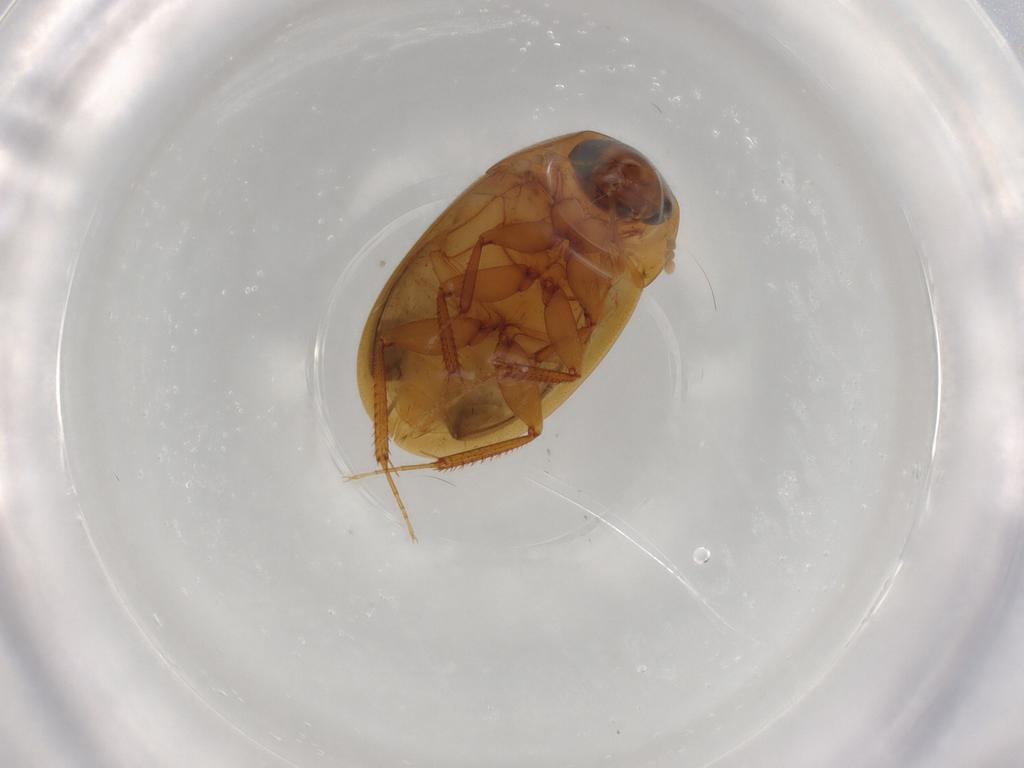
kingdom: Animalia
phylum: Arthropoda
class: Insecta
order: Coleoptera
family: Hydrophilidae
